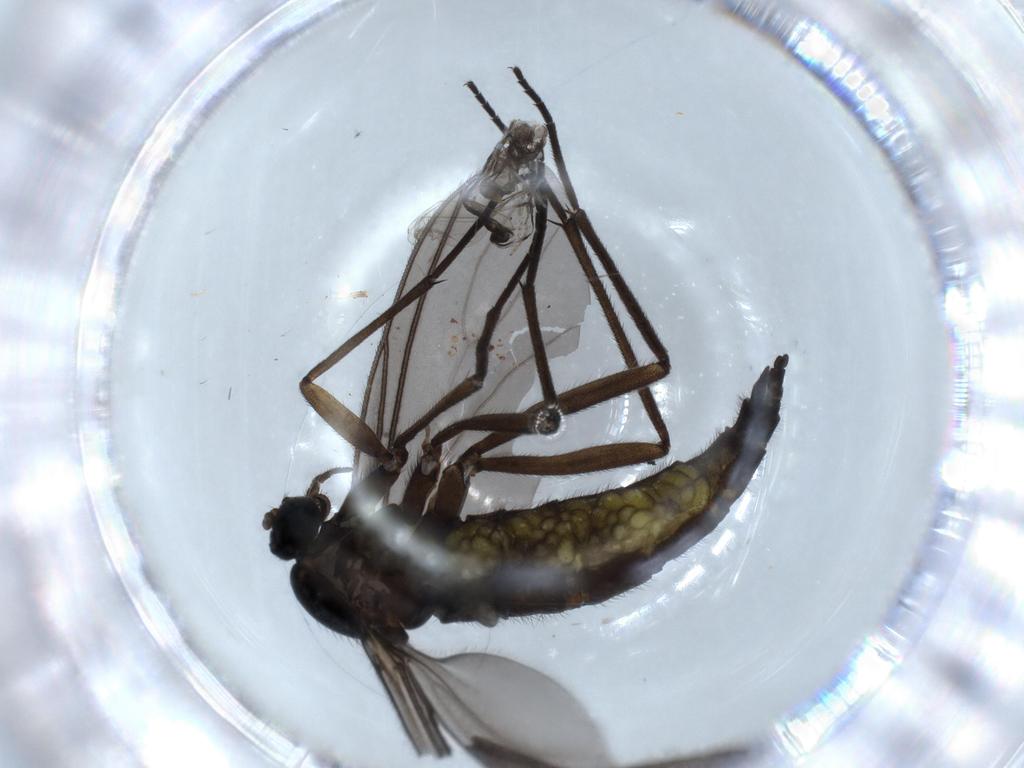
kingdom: Animalia
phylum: Arthropoda
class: Insecta
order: Diptera
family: Sciaridae
